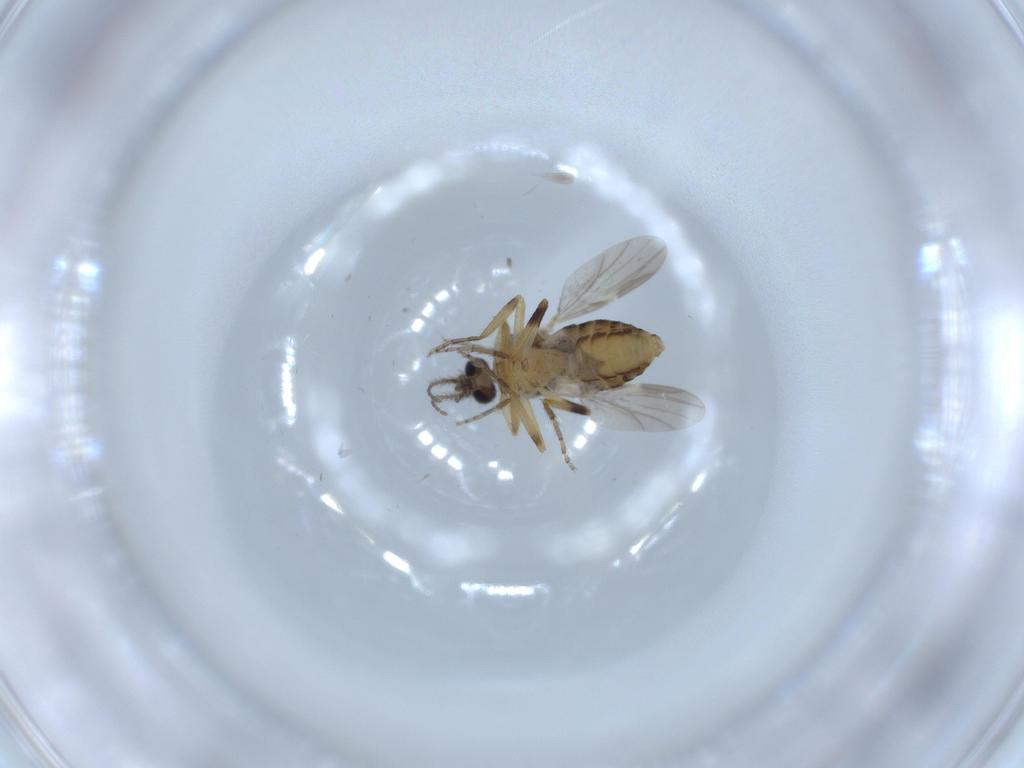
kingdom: Animalia
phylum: Arthropoda
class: Insecta
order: Diptera
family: Ceratopogonidae
